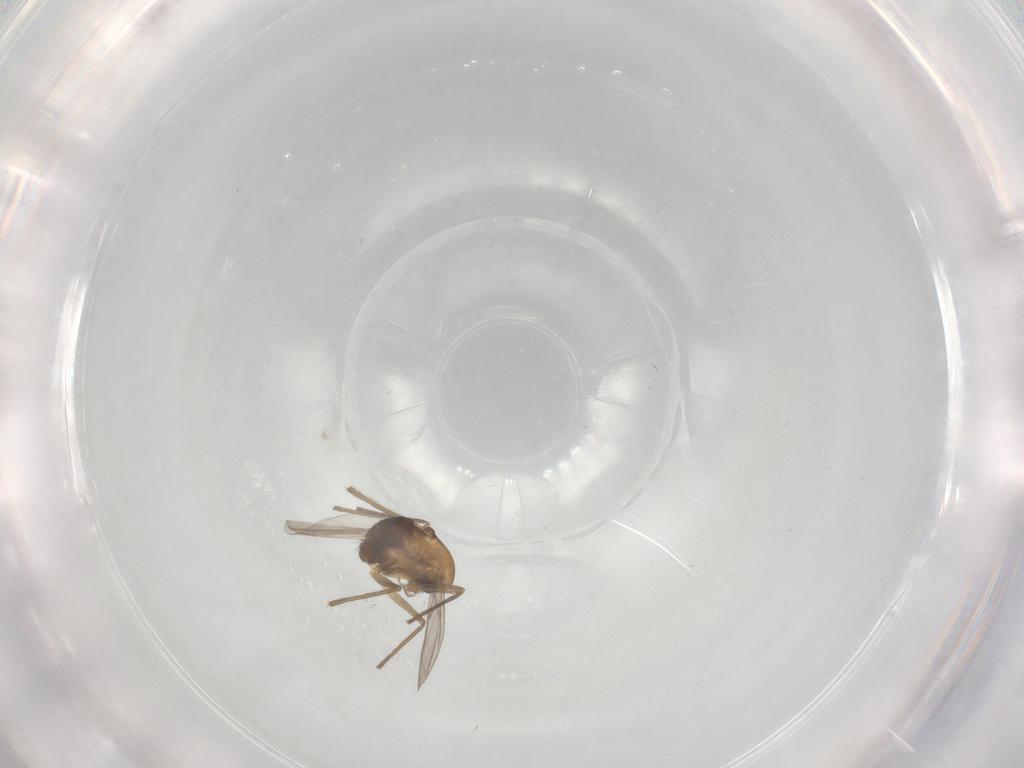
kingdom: Animalia
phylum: Arthropoda
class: Insecta
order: Diptera
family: Chironomidae
